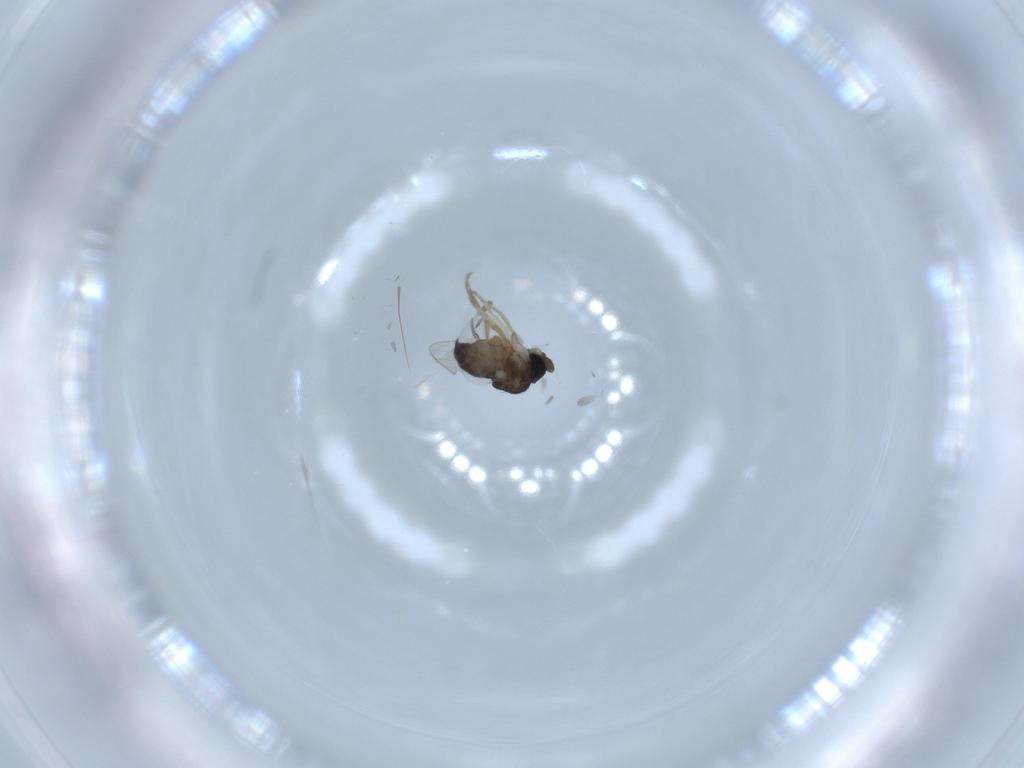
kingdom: Animalia
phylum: Arthropoda
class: Insecta
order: Diptera
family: Phoridae
